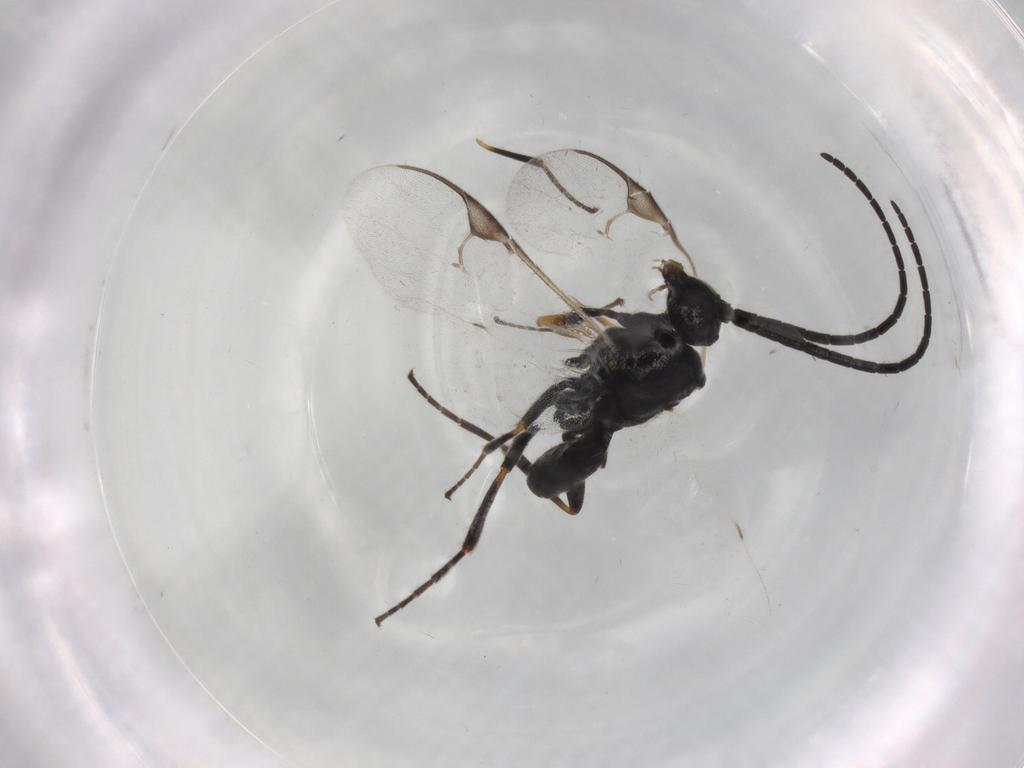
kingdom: Animalia
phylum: Arthropoda
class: Insecta
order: Hymenoptera
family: Braconidae
